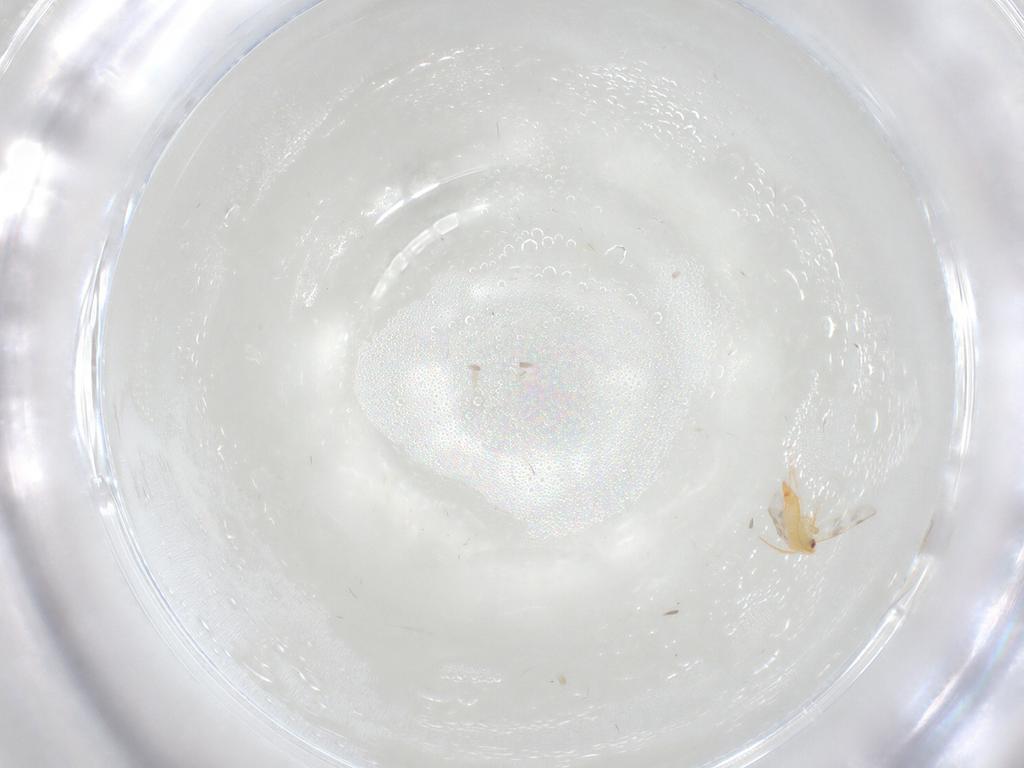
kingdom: Animalia
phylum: Arthropoda
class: Insecta
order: Hemiptera
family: Aleyrodidae
